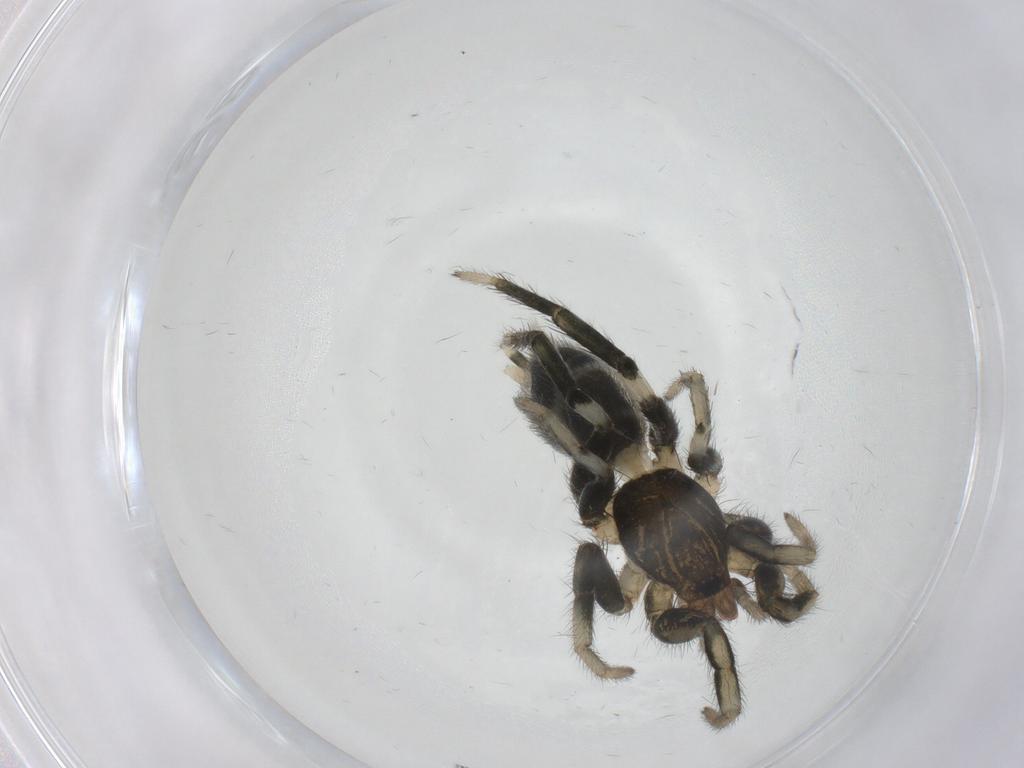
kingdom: Animalia
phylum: Arthropoda
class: Arachnida
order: Araneae
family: Gnaphosidae
